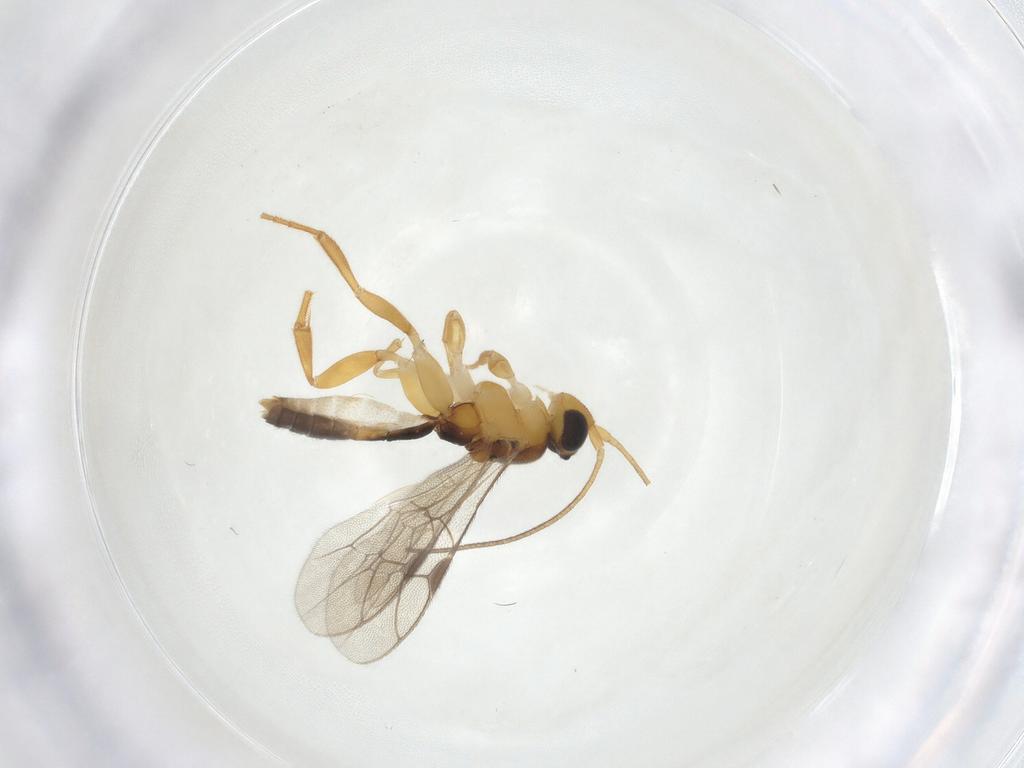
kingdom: Animalia
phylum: Arthropoda
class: Insecta
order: Hymenoptera
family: Ichneumonidae
